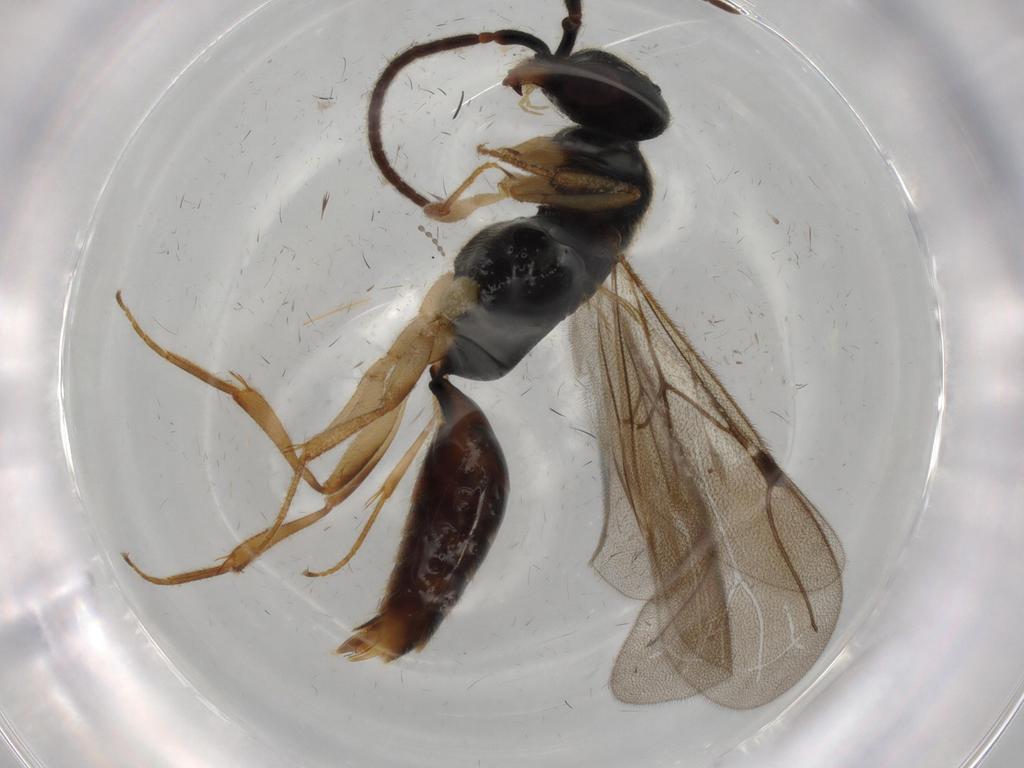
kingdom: Animalia
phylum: Arthropoda
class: Insecta
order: Hymenoptera
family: Bethylidae
